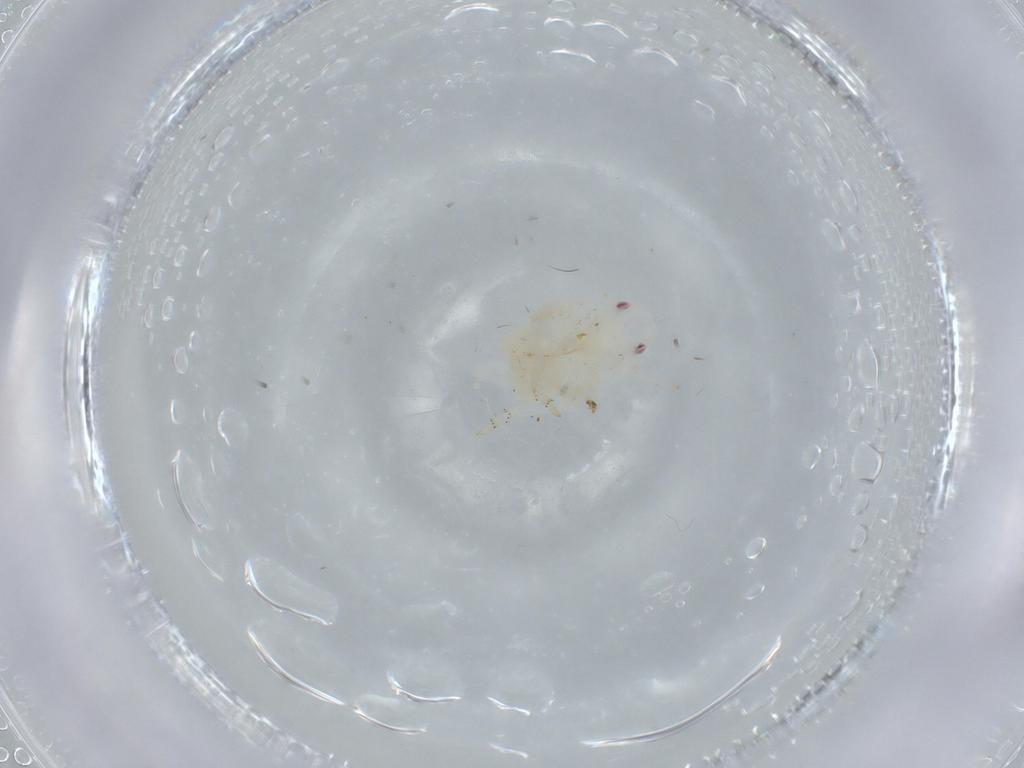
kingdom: Animalia
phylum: Arthropoda
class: Insecta
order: Hemiptera
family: Flatidae
